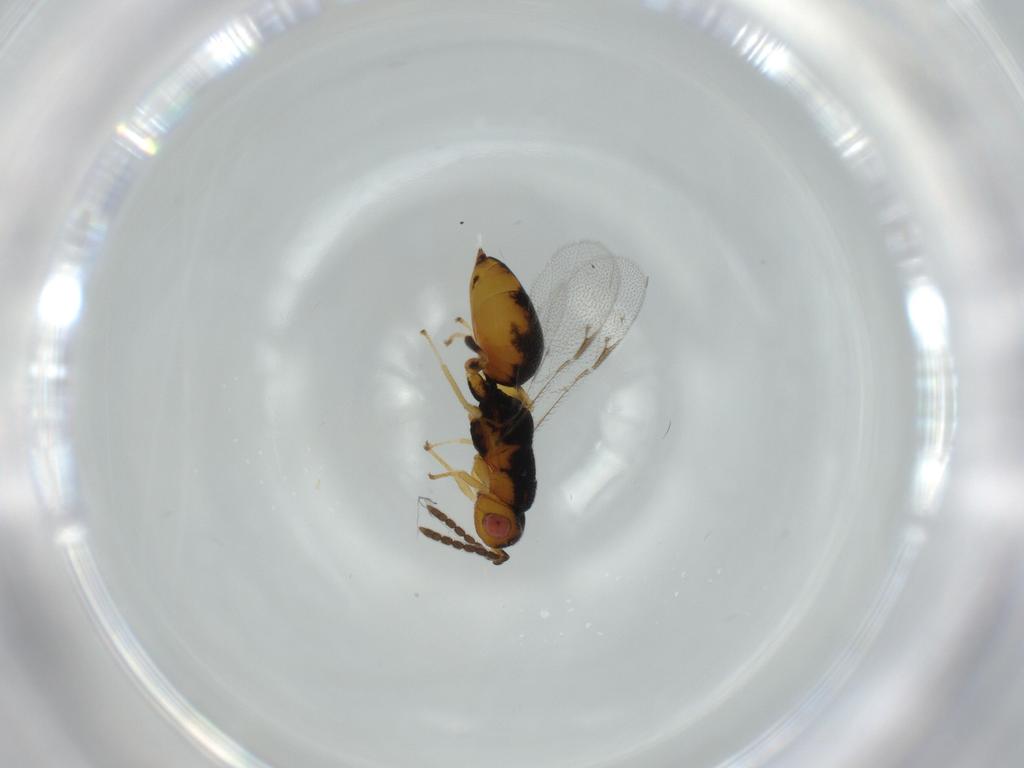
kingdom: Animalia
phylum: Arthropoda
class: Insecta
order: Hymenoptera
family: Eurytomidae
